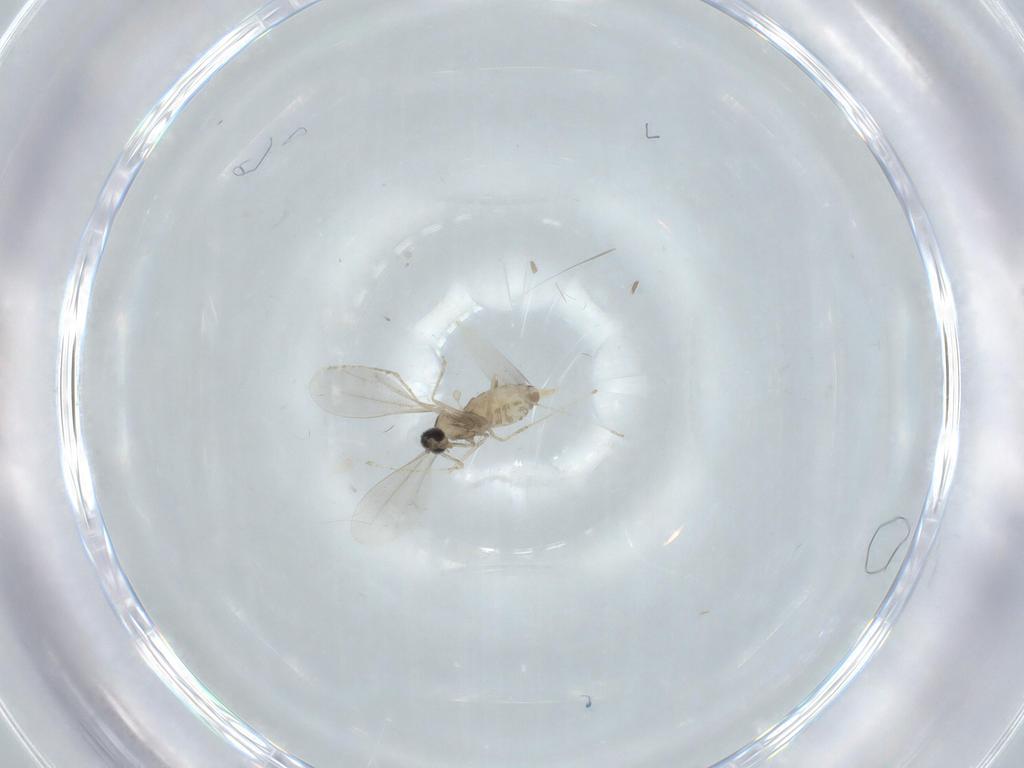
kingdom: Animalia
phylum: Arthropoda
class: Insecta
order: Diptera
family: Cecidomyiidae
